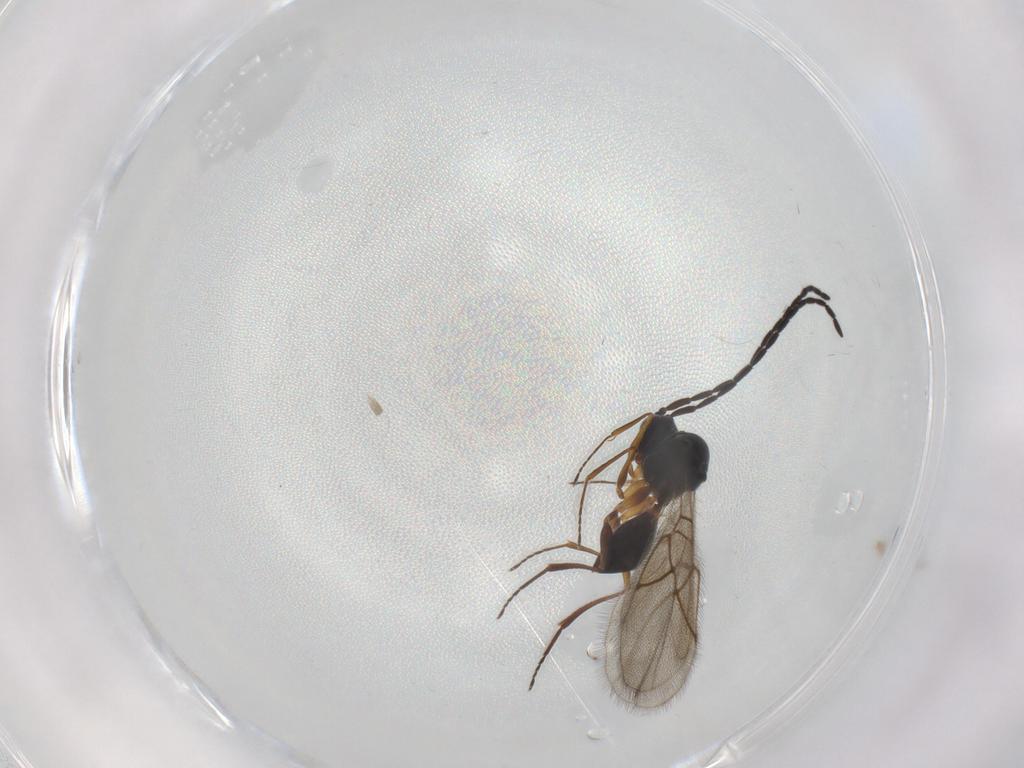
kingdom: Animalia
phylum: Arthropoda
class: Insecta
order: Hymenoptera
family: Figitidae
